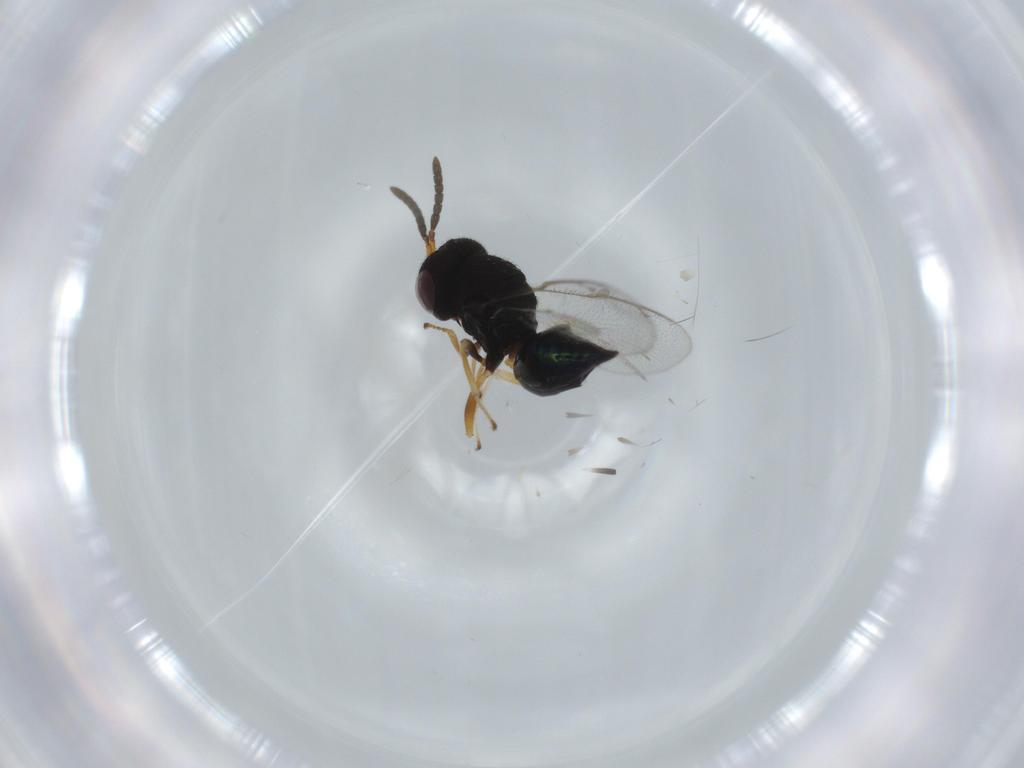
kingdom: Animalia
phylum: Arthropoda
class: Insecta
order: Hymenoptera
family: Pteromalidae
